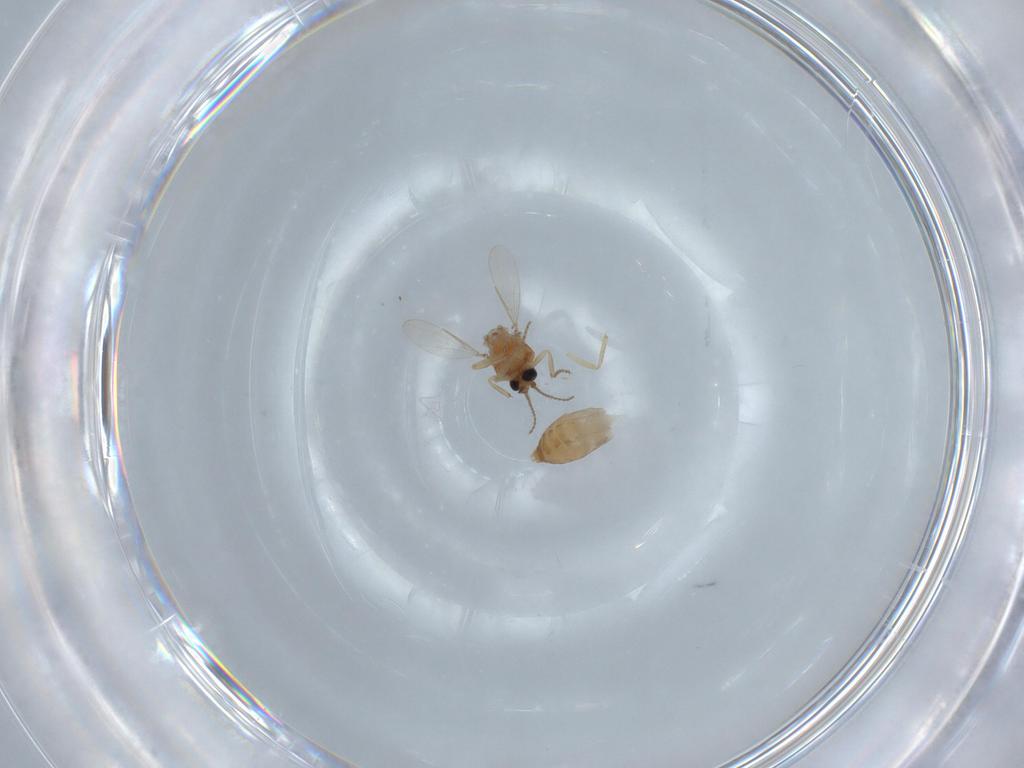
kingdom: Animalia
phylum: Arthropoda
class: Insecta
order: Diptera
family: Ceratopogonidae
